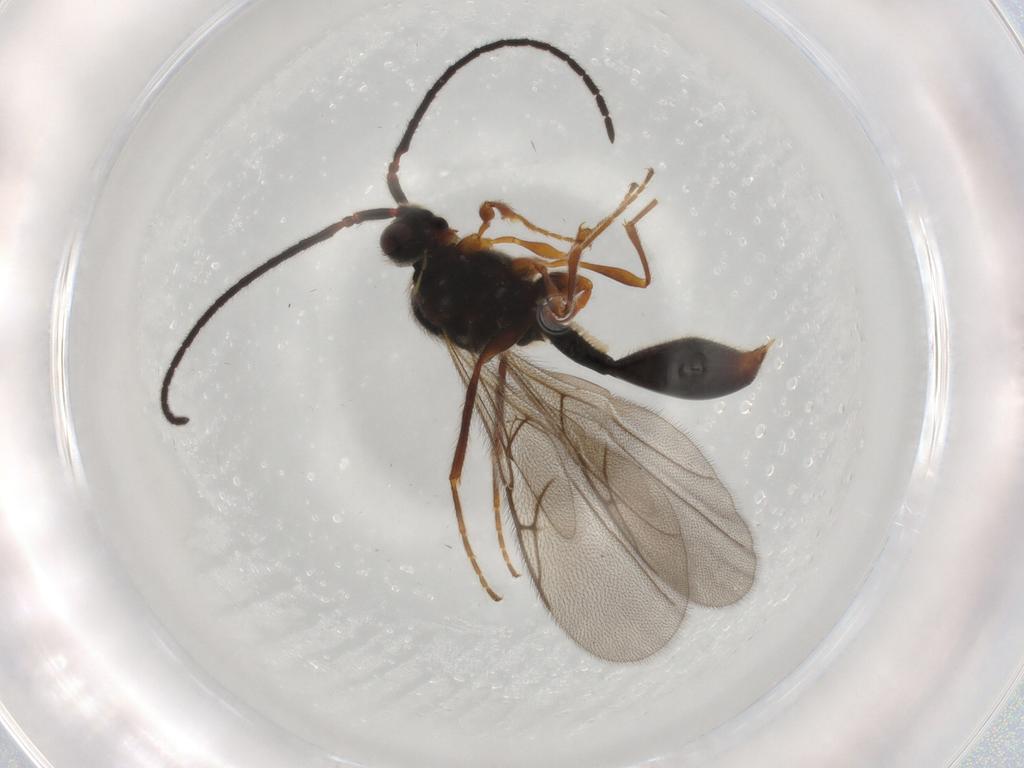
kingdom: Animalia
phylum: Arthropoda
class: Insecta
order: Hymenoptera
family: Diapriidae
